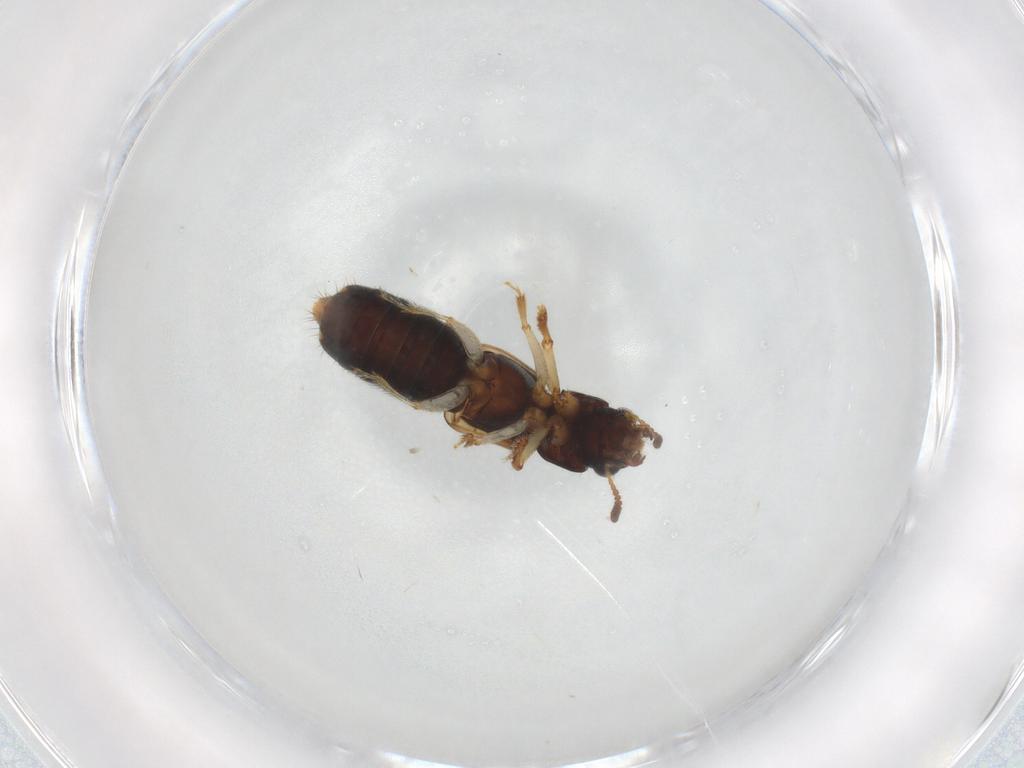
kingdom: Animalia
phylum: Arthropoda
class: Insecta
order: Coleoptera
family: Staphylinidae
